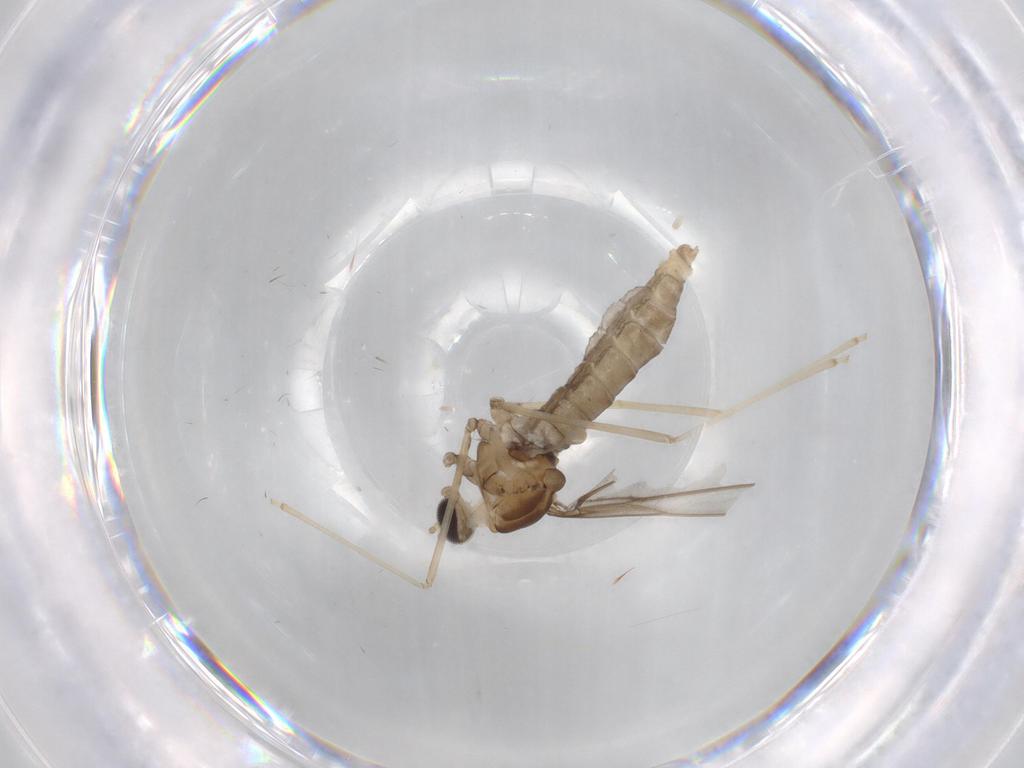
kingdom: Animalia
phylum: Arthropoda
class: Insecta
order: Diptera
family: Cecidomyiidae
